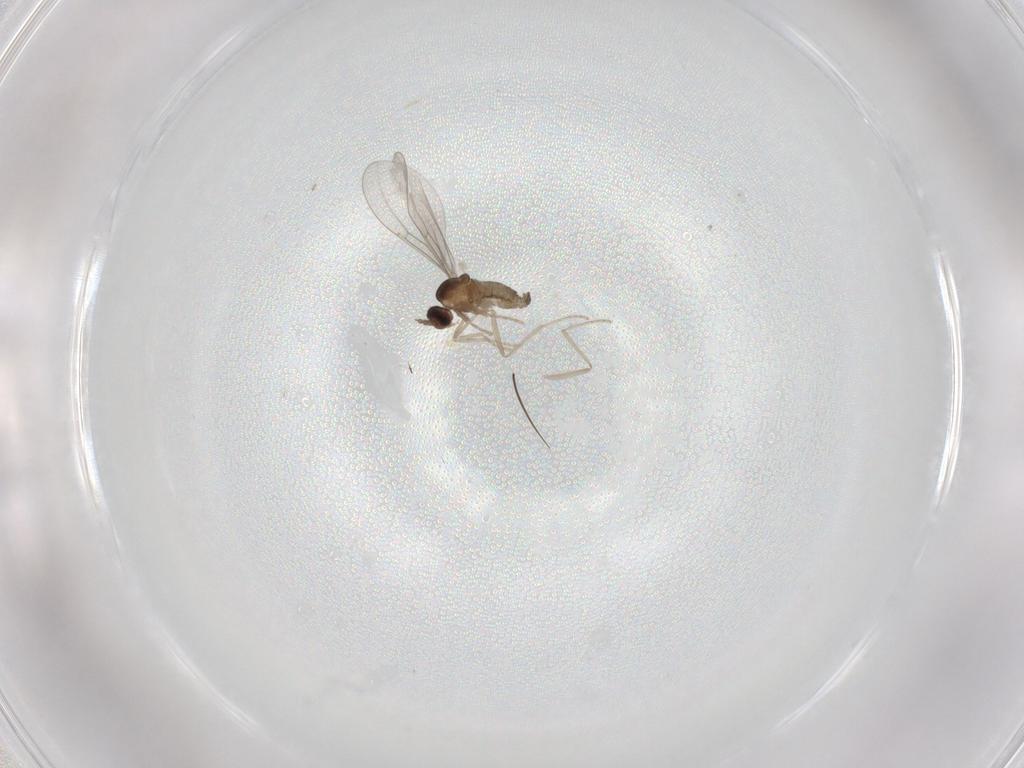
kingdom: Animalia
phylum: Arthropoda
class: Insecta
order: Diptera
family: Cecidomyiidae
